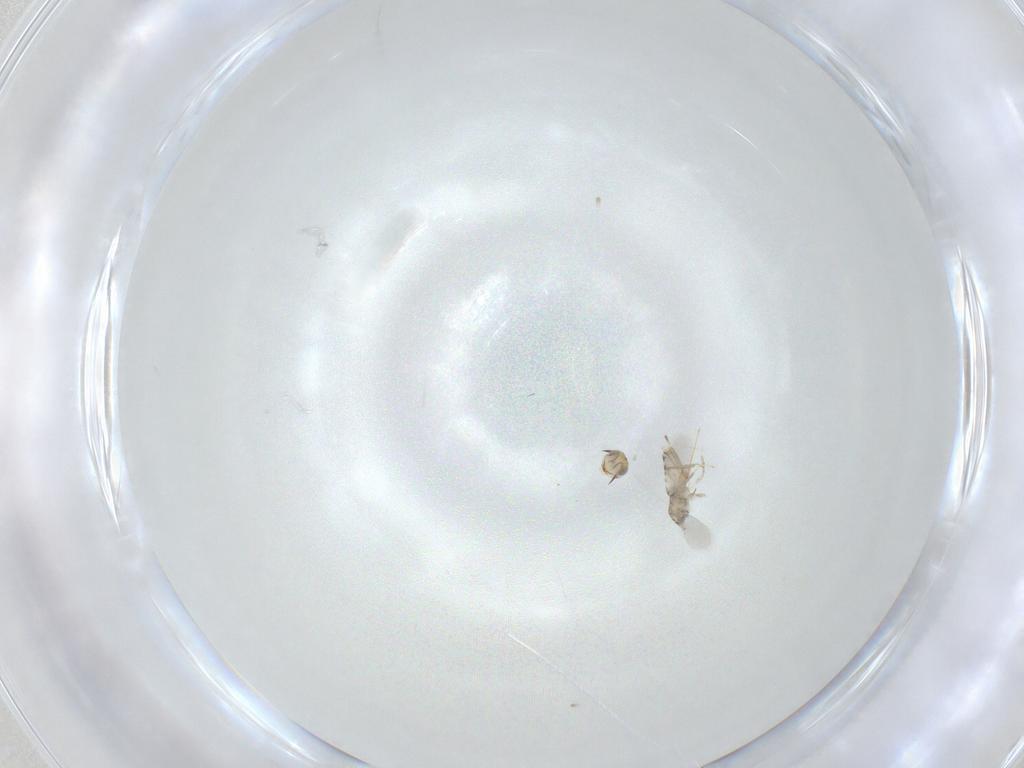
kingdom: Animalia
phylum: Arthropoda
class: Insecta
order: Hymenoptera
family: Aphelinidae
